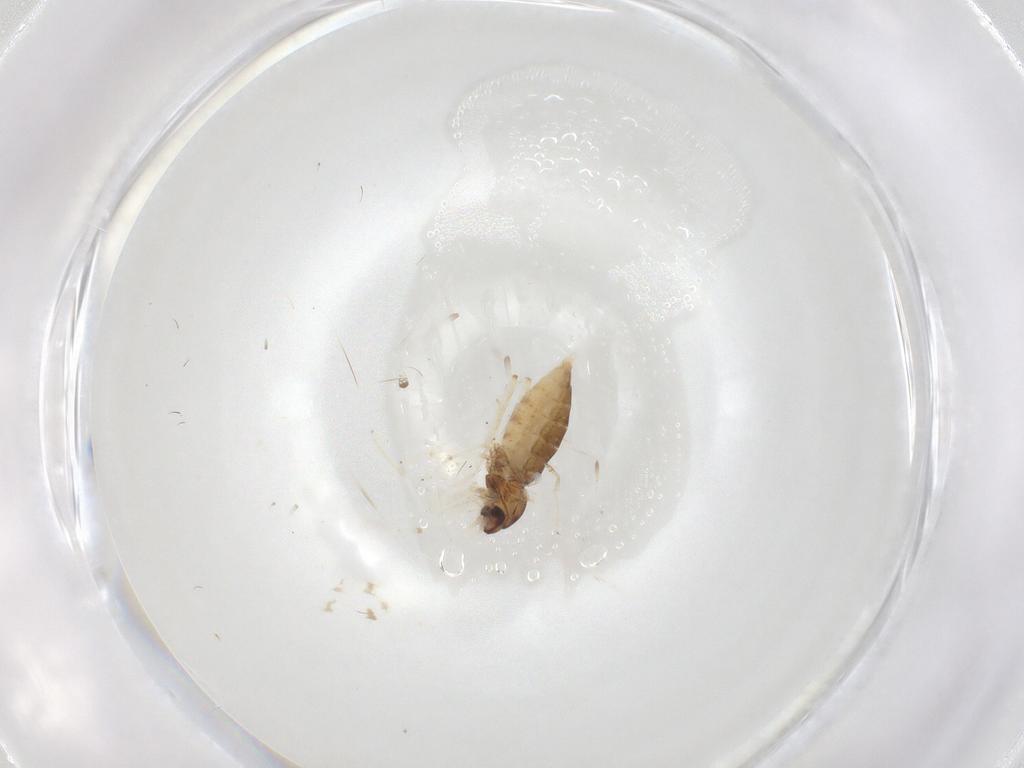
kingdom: Animalia
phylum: Arthropoda
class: Insecta
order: Diptera
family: Cecidomyiidae
